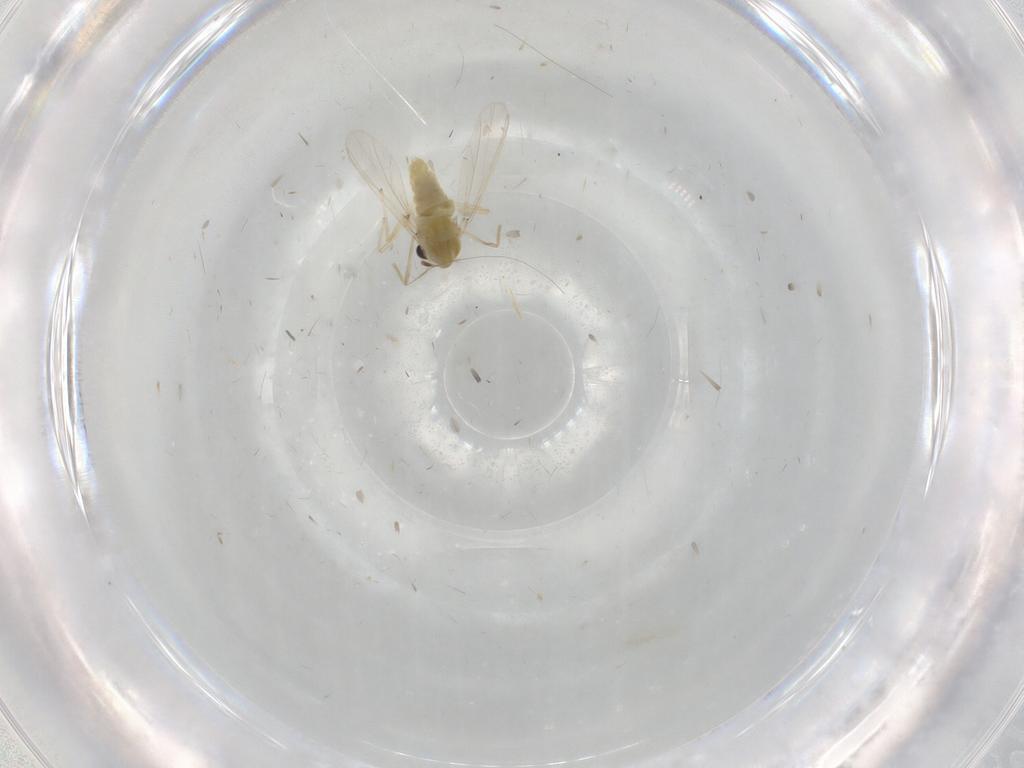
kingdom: Animalia
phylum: Arthropoda
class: Insecta
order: Diptera
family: Chironomidae
